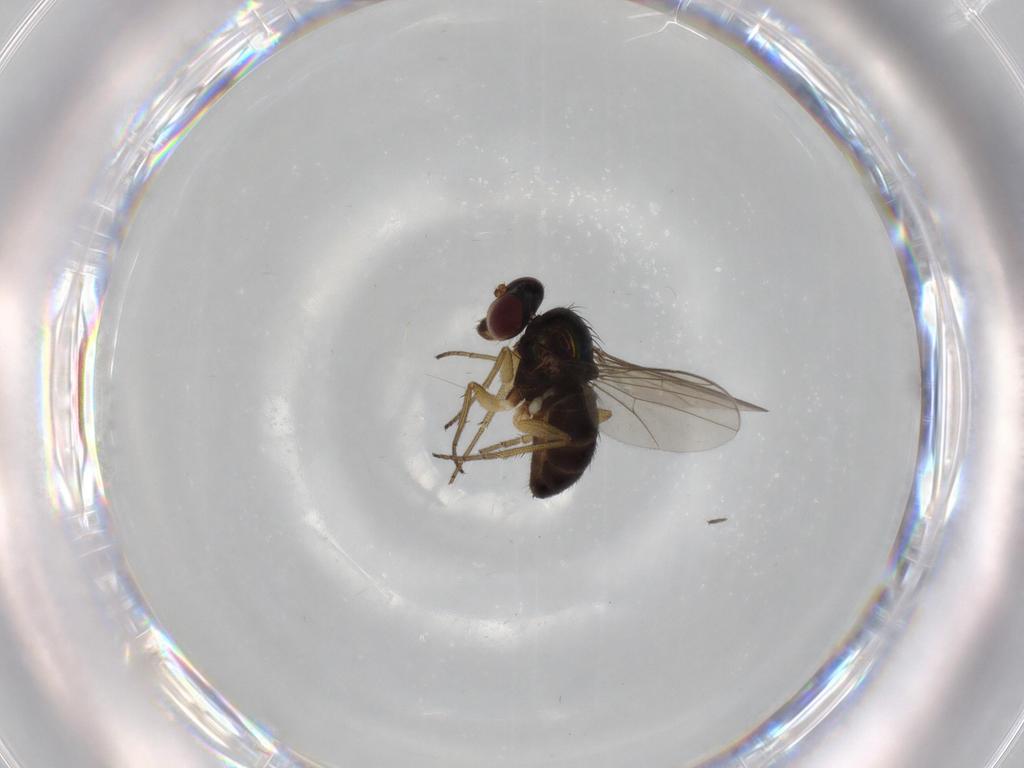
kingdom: Animalia
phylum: Arthropoda
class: Insecta
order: Diptera
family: Dolichopodidae
